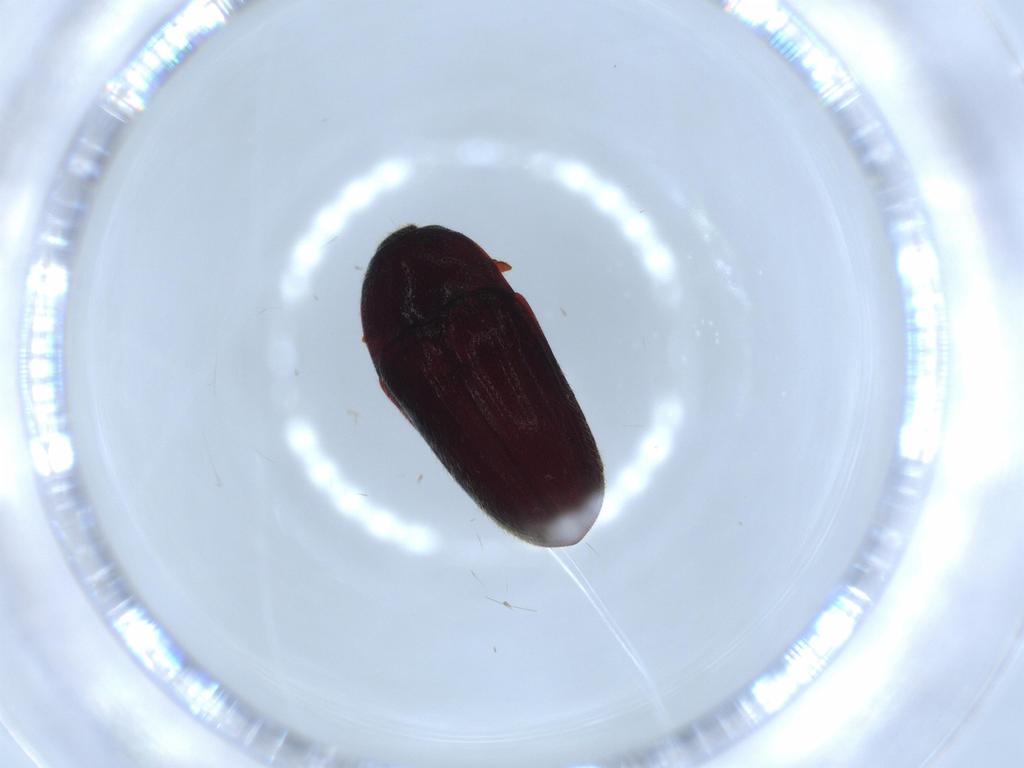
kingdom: Animalia
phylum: Arthropoda
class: Insecta
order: Coleoptera
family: Throscidae
